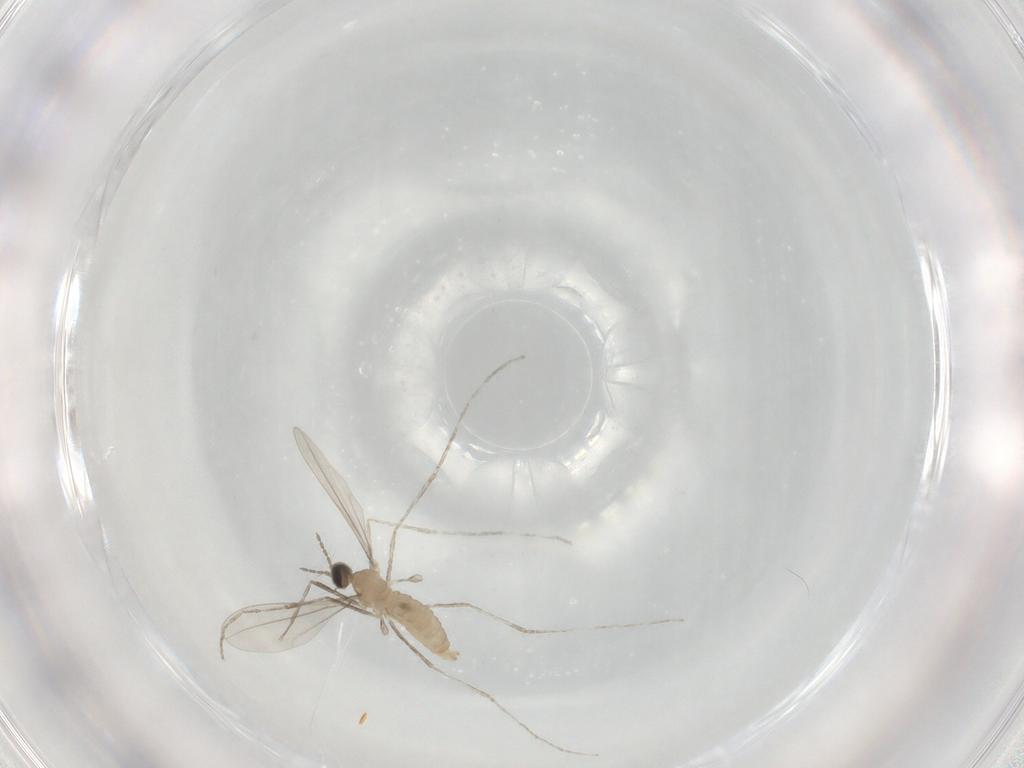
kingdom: Animalia
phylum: Arthropoda
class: Insecta
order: Diptera
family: Cecidomyiidae
